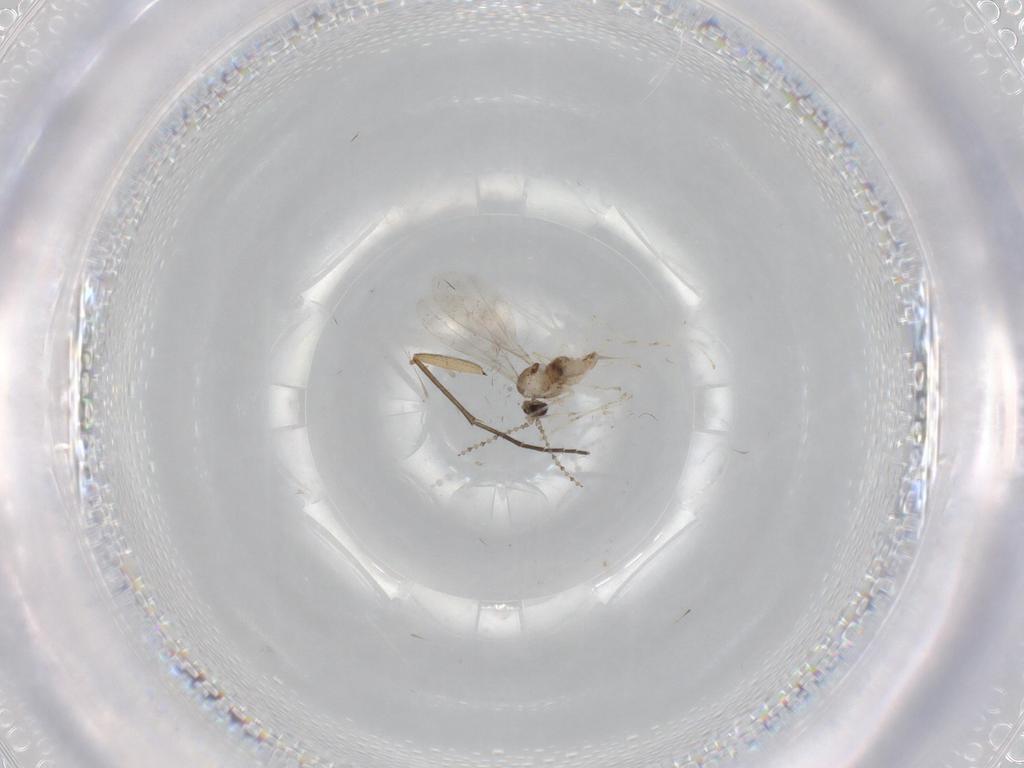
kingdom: Animalia
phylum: Arthropoda
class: Insecta
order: Diptera
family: Cecidomyiidae
